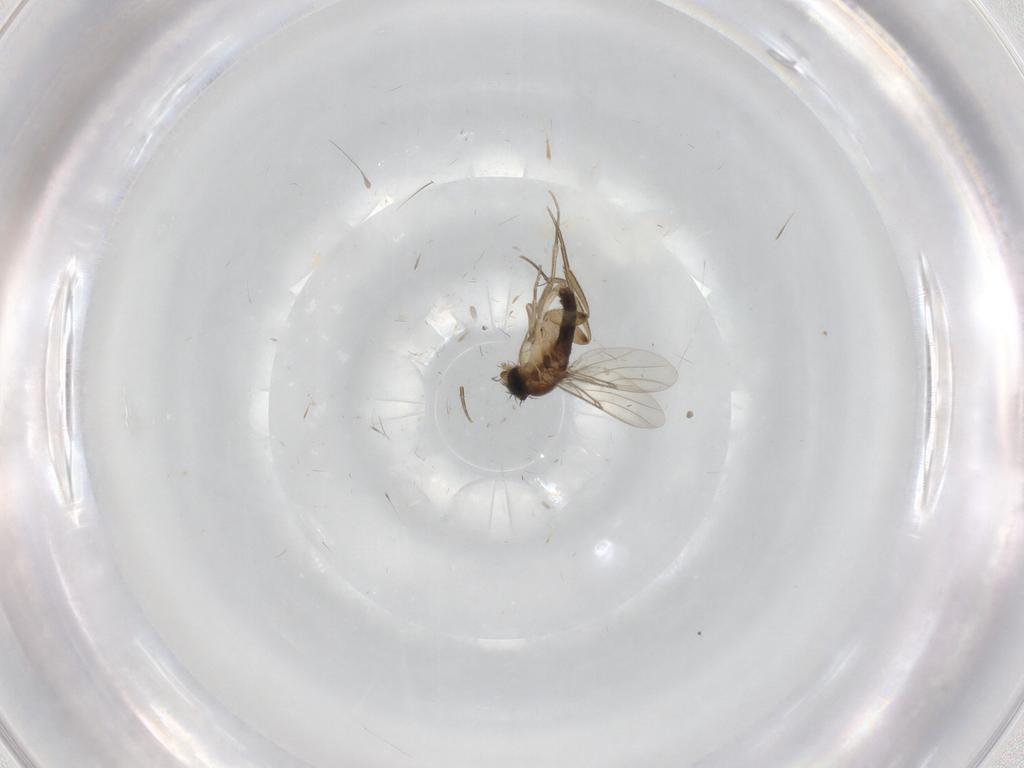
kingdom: Animalia
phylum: Arthropoda
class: Insecta
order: Diptera
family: Phoridae
